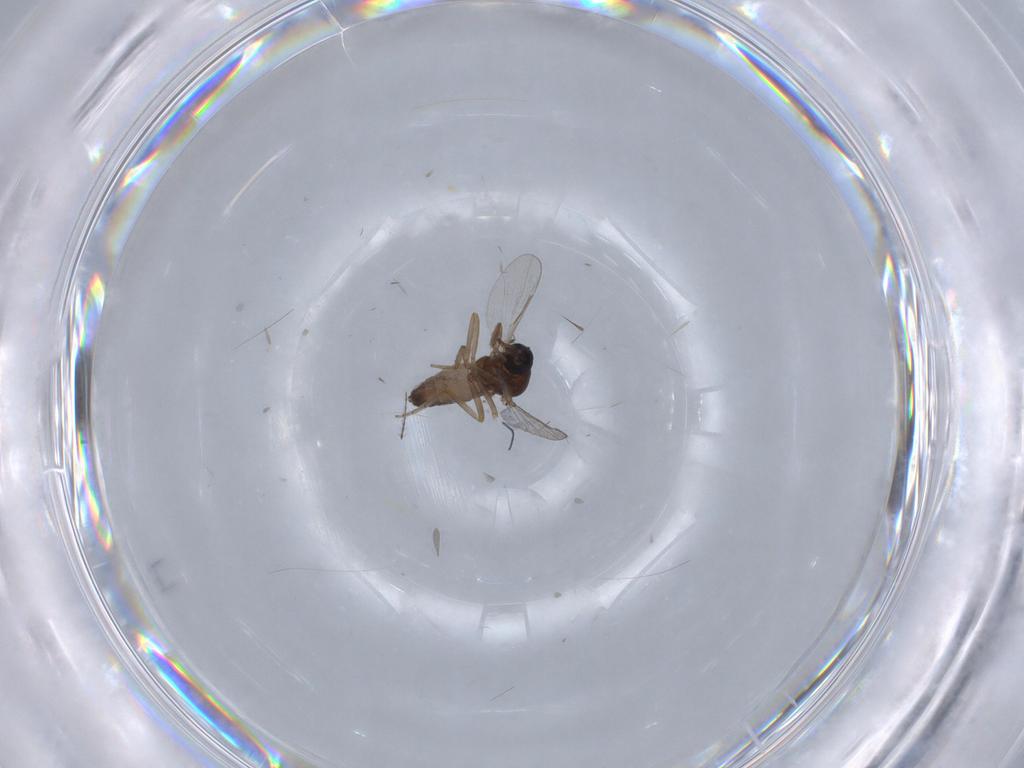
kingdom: Animalia
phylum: Arthropoda
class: Insecta
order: Diptera
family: Ceratopogonidae
